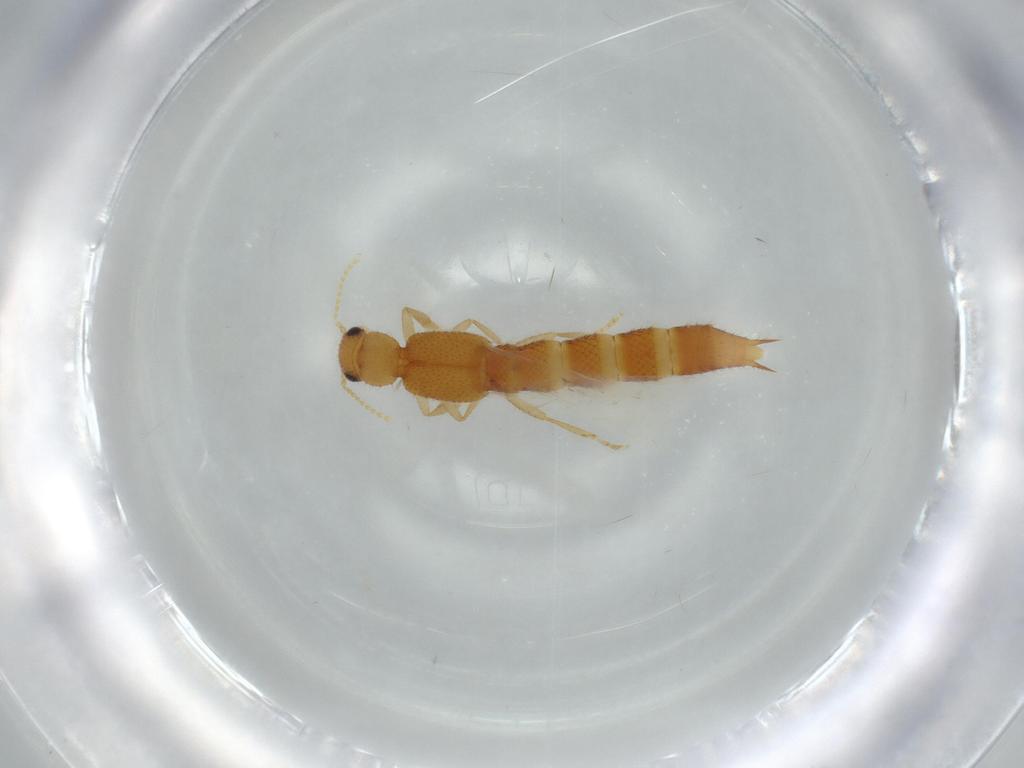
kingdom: Animalia
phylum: Arthropoda
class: Insecta
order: Coleoptera
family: Staphylinidae
